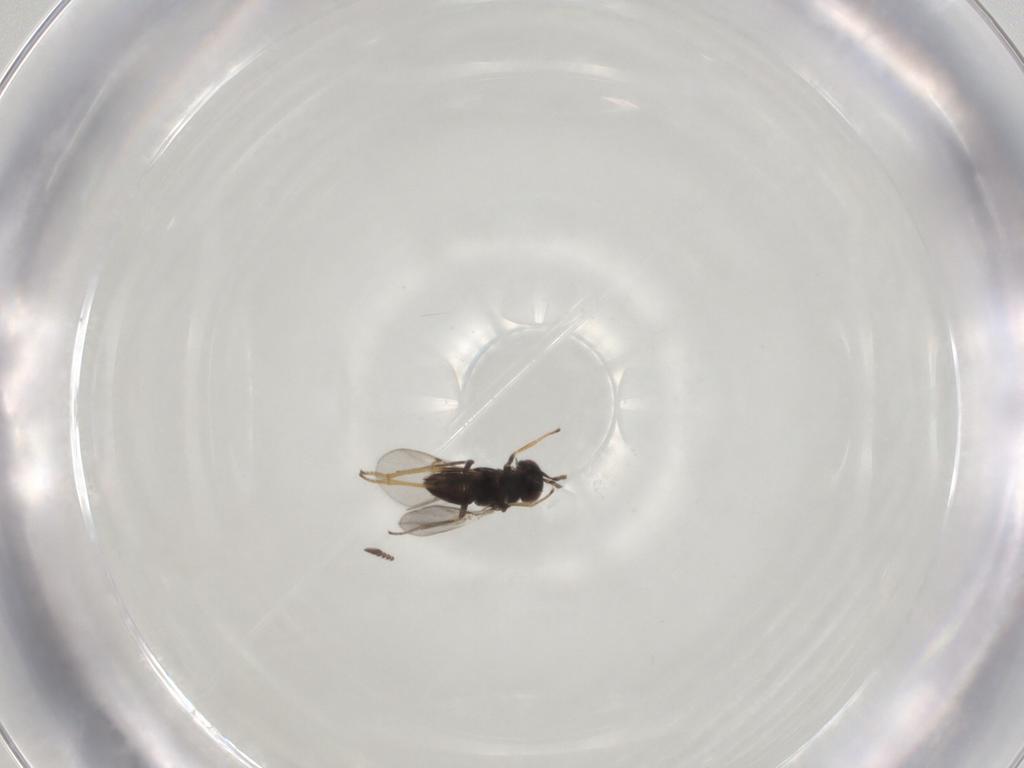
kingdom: Animalia
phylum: Arthropoda
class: Insecta
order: Hymenoptera
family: Encyrtidae
